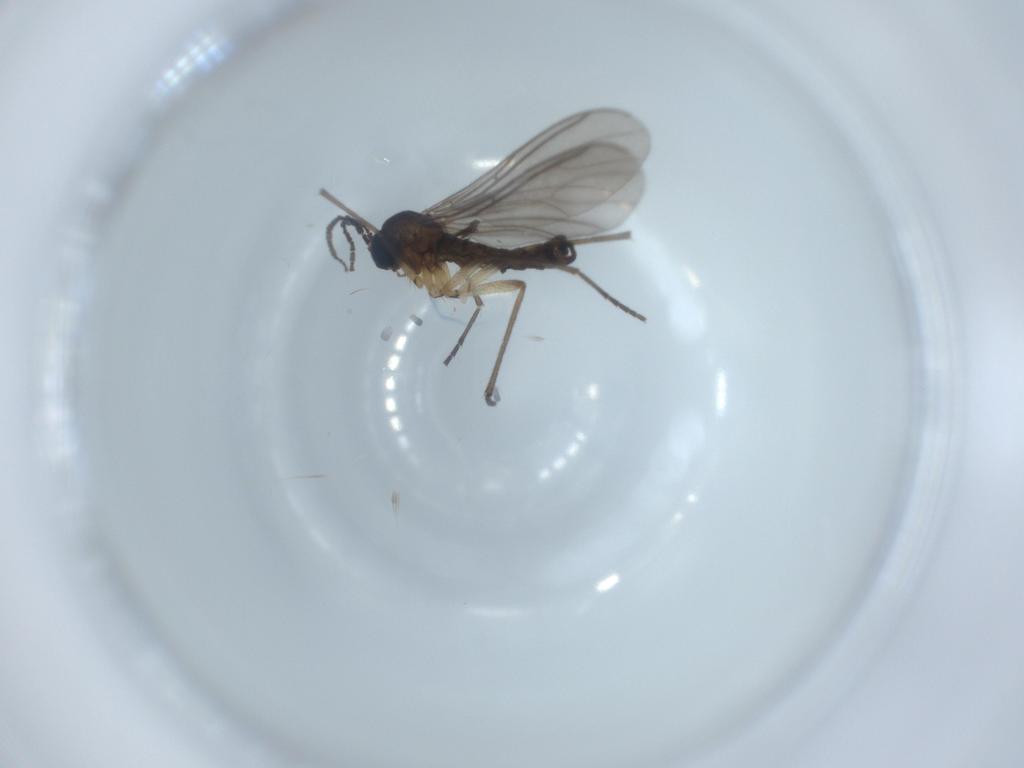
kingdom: Animalia
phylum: Arthropoda
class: Insecta
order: Diptera
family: Sciaridae
